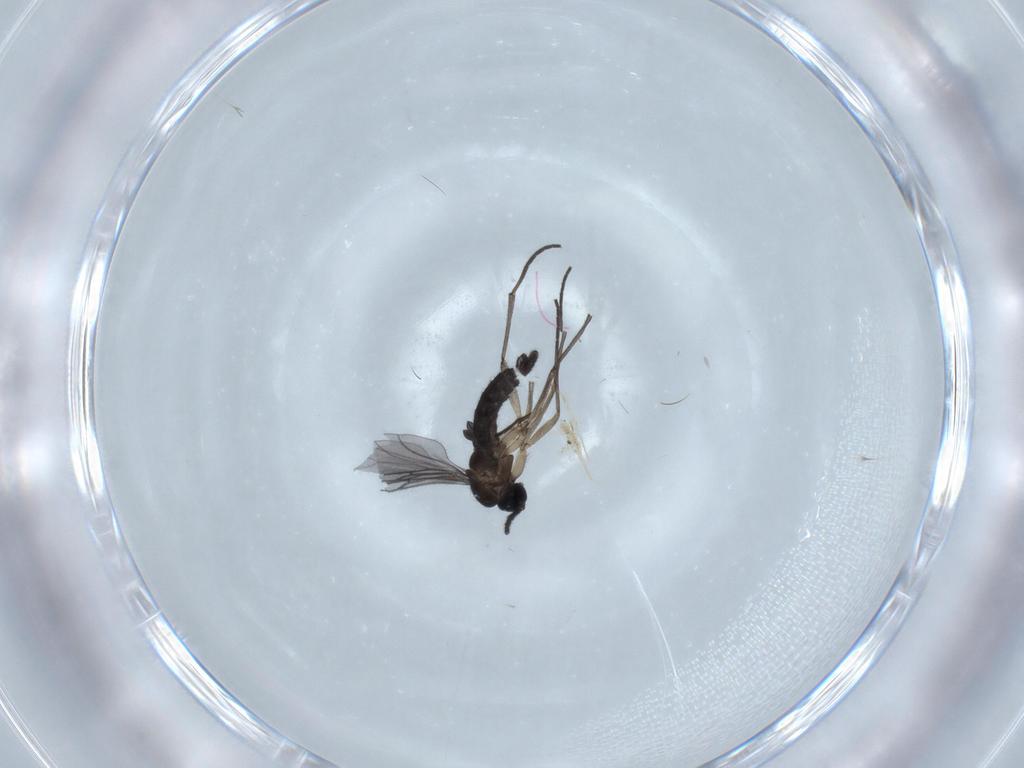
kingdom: Animalia
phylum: Arthropoda
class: Insecta
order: Diptera
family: Sciaridae
